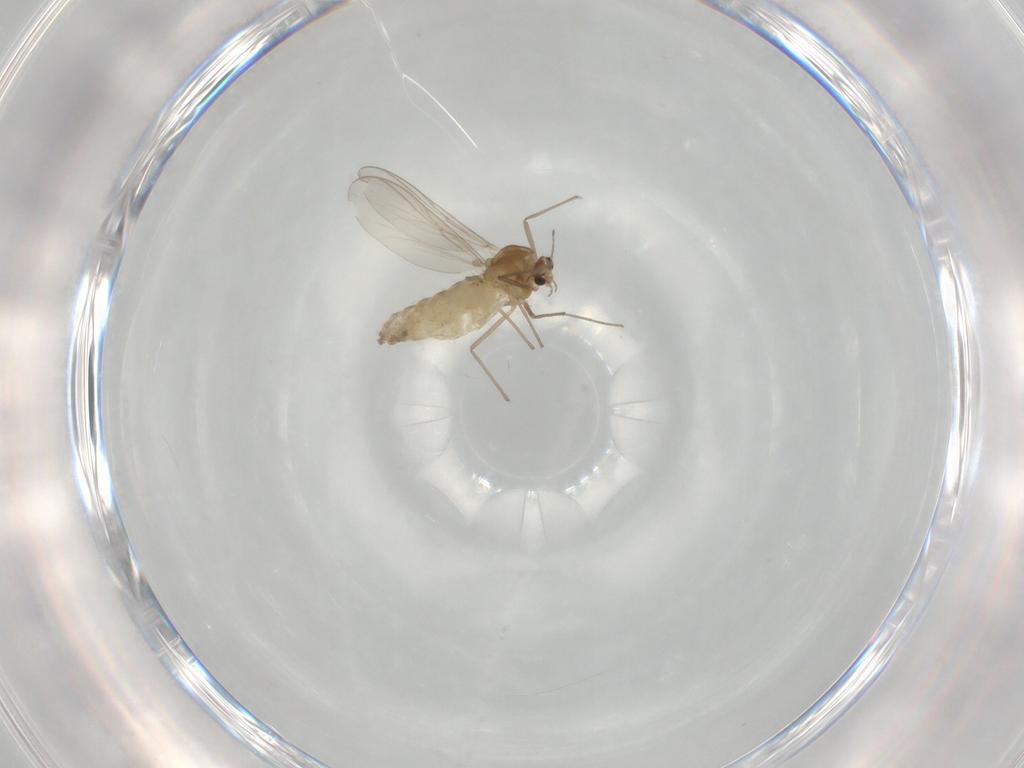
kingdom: Animalia
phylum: Arthropoda
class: Insecta
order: Diptera
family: Chironomidae
